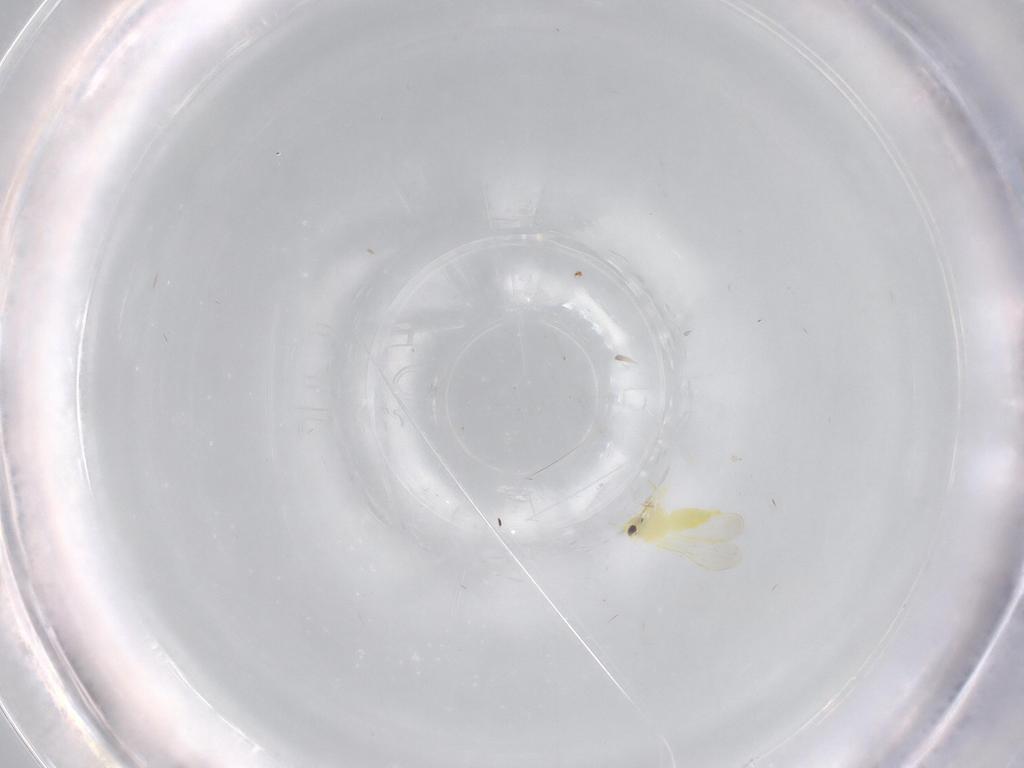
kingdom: Animalia
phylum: Arthropoda
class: Insecta
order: Hemiptera
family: Aleyrodidae
